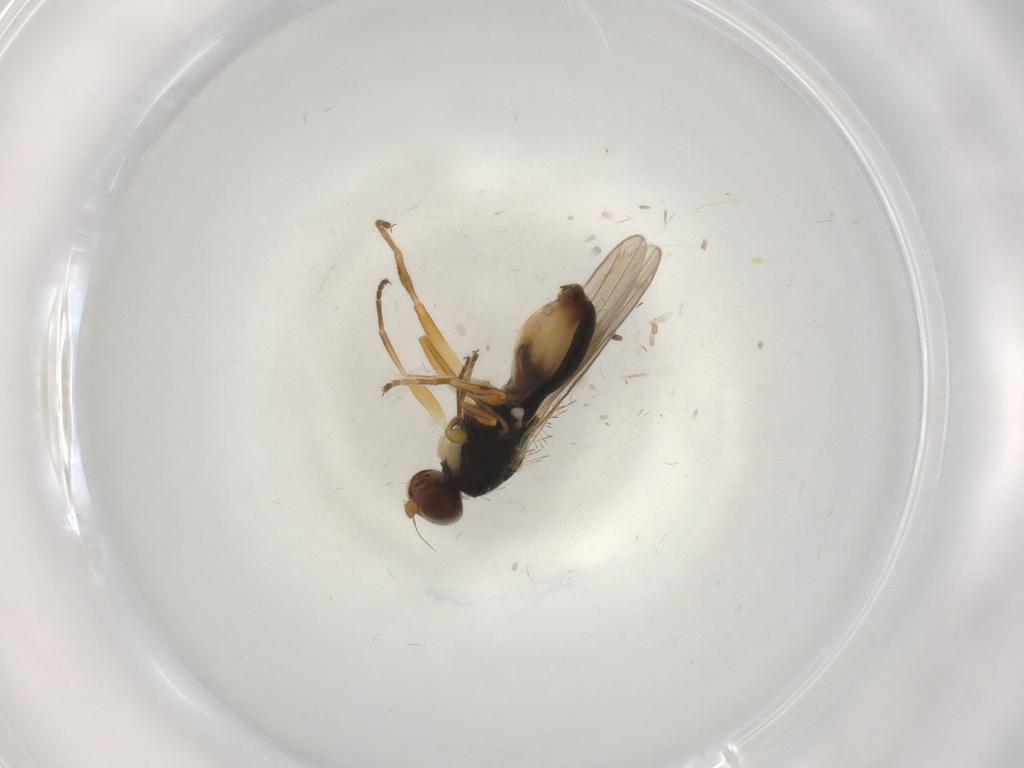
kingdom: Animalia
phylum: Arthropoda
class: Insecta
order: Diptera
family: Chloropidae
